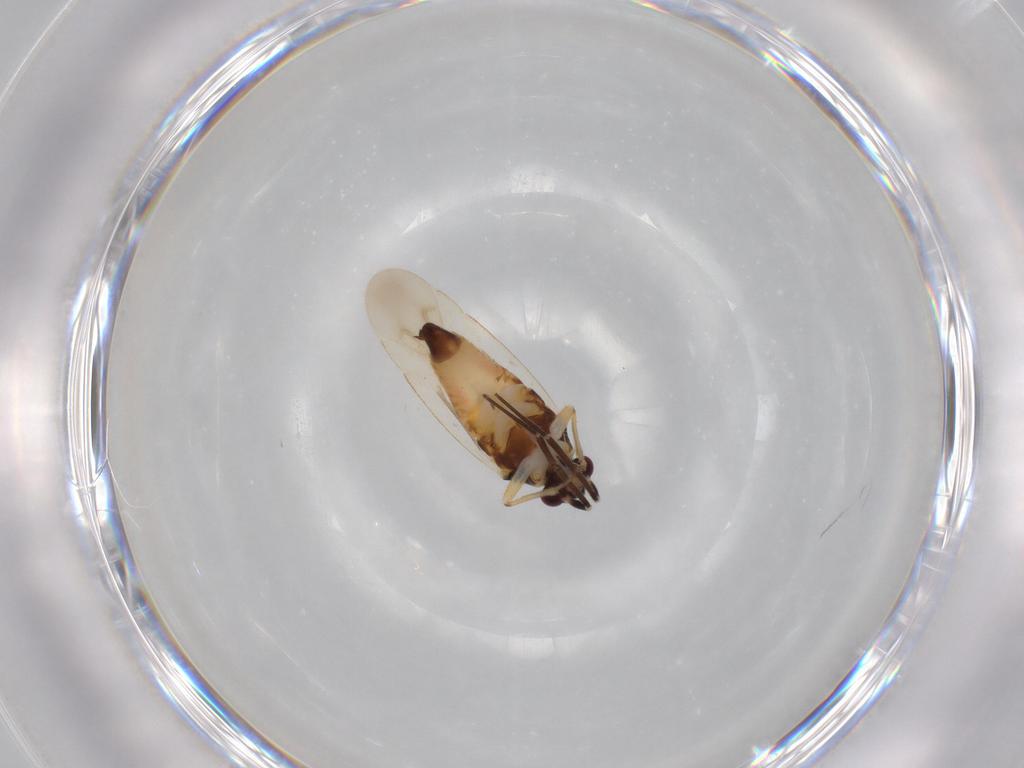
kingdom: Animalia
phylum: Arthropoda
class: Insecta
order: Hemiptera
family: Miridae
